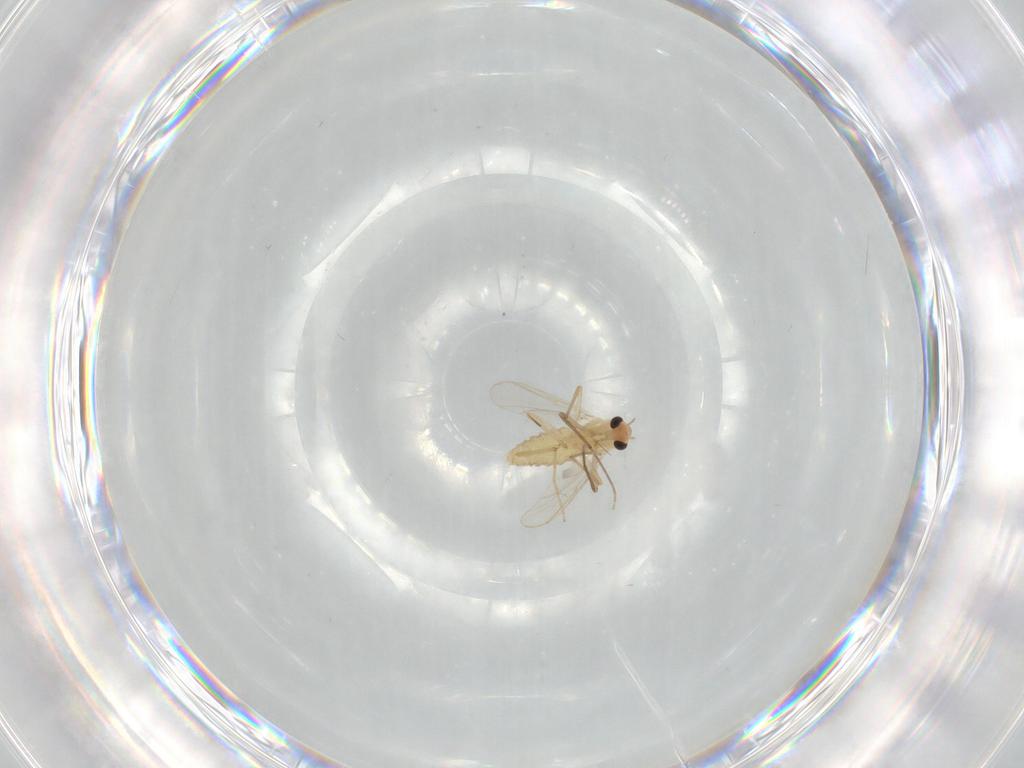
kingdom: Animalia
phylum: Arthropoda
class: Insecta
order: Diptera
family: Chironomidae
